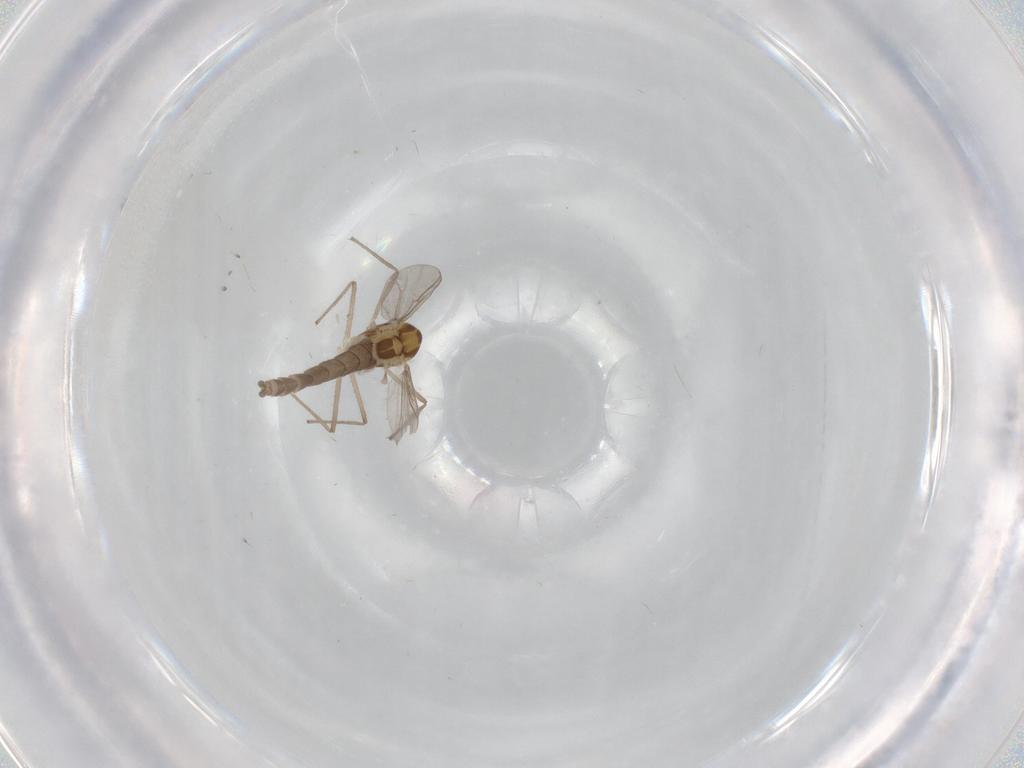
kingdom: Animalia
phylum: Arthropoda
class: Insecta
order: Diptera
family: Chironomidae
